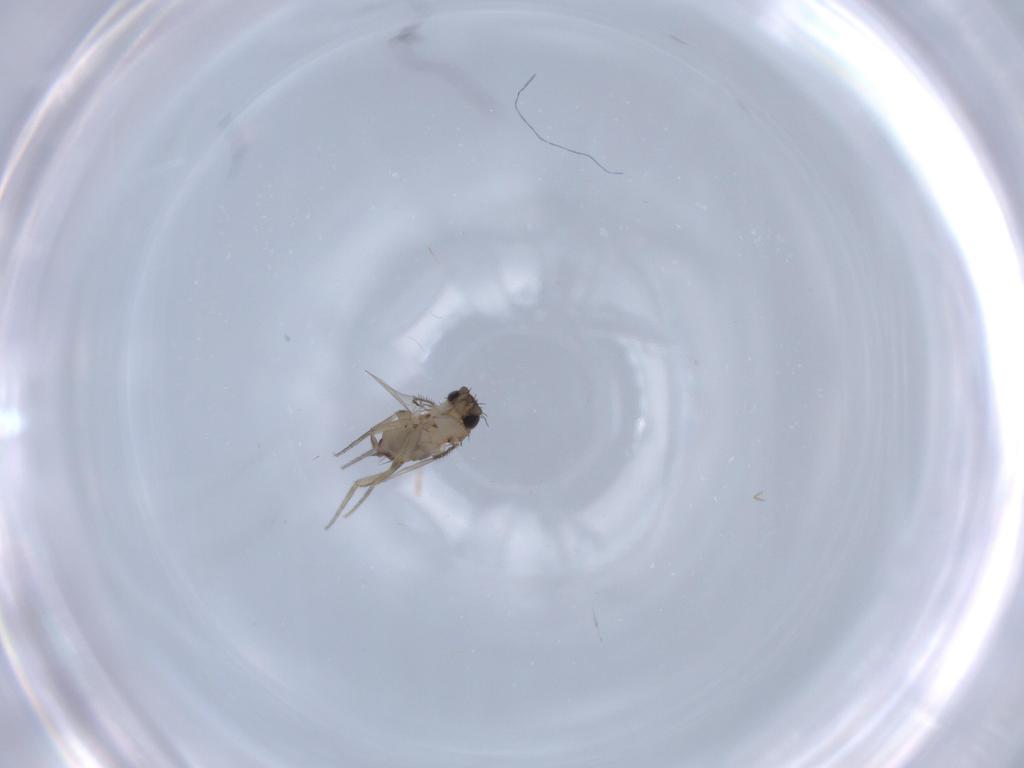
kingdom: Animalia
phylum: Arthropoda
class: Insecta
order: Diptera
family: Phoridae
